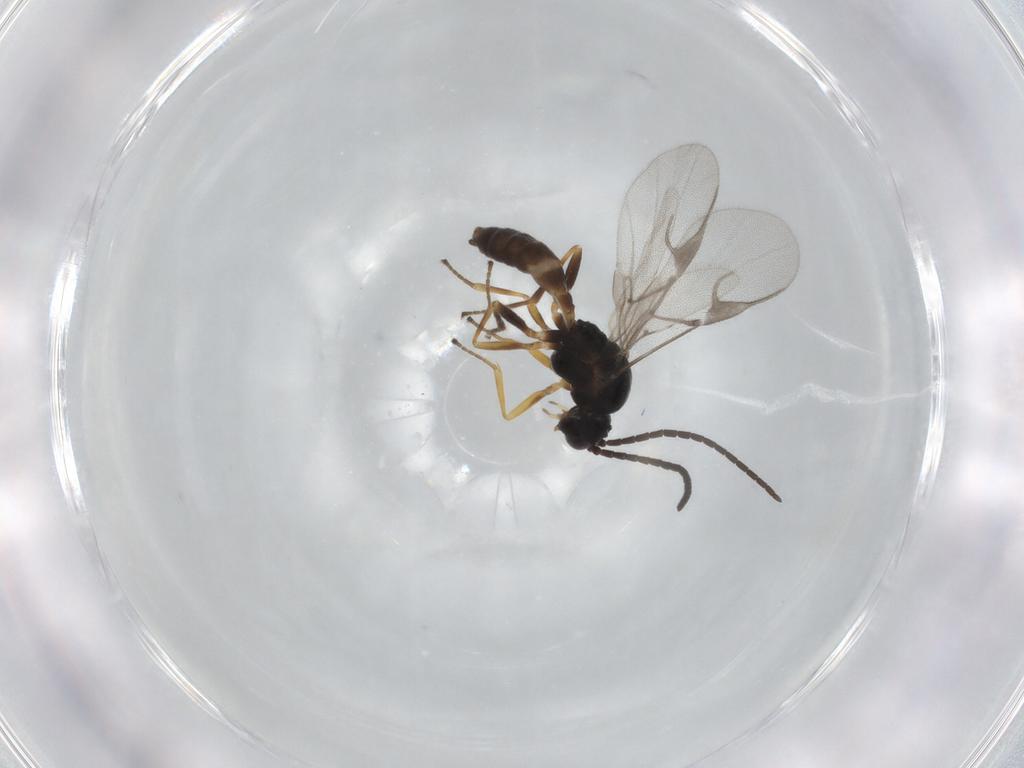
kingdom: Animalia
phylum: Arthropoda
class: Insecta
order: Hymenoptera
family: Braconidae
